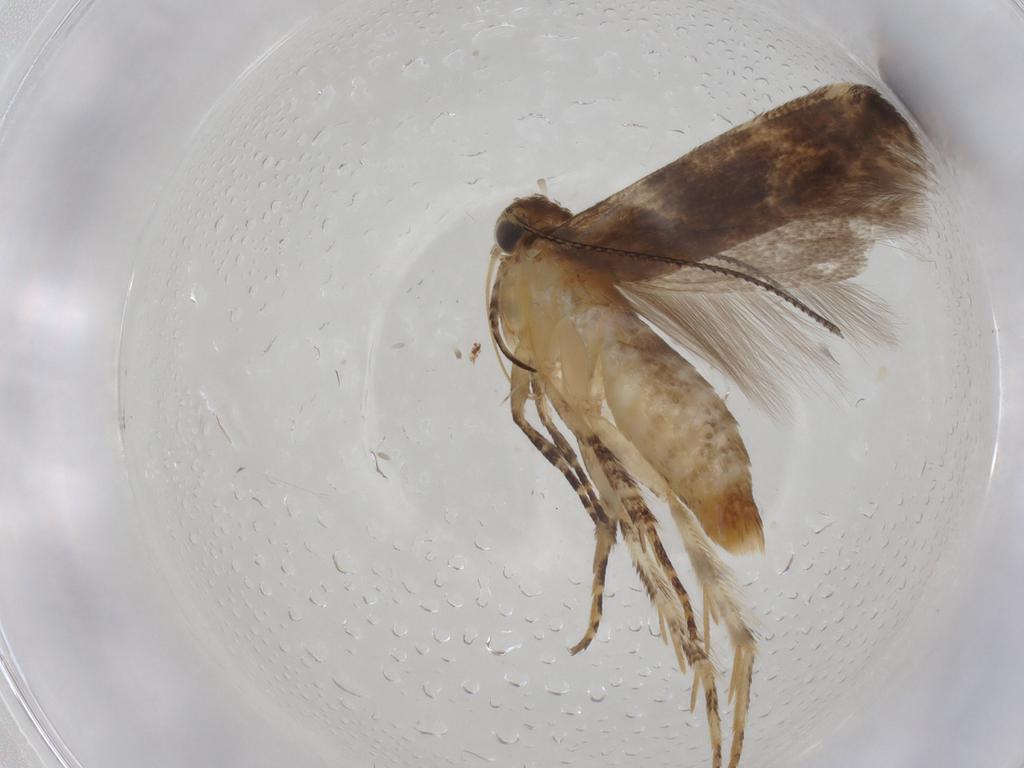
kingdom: Animalia
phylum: Arthropoda
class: Insecta
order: Lepidoptera
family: Gelechiidae
